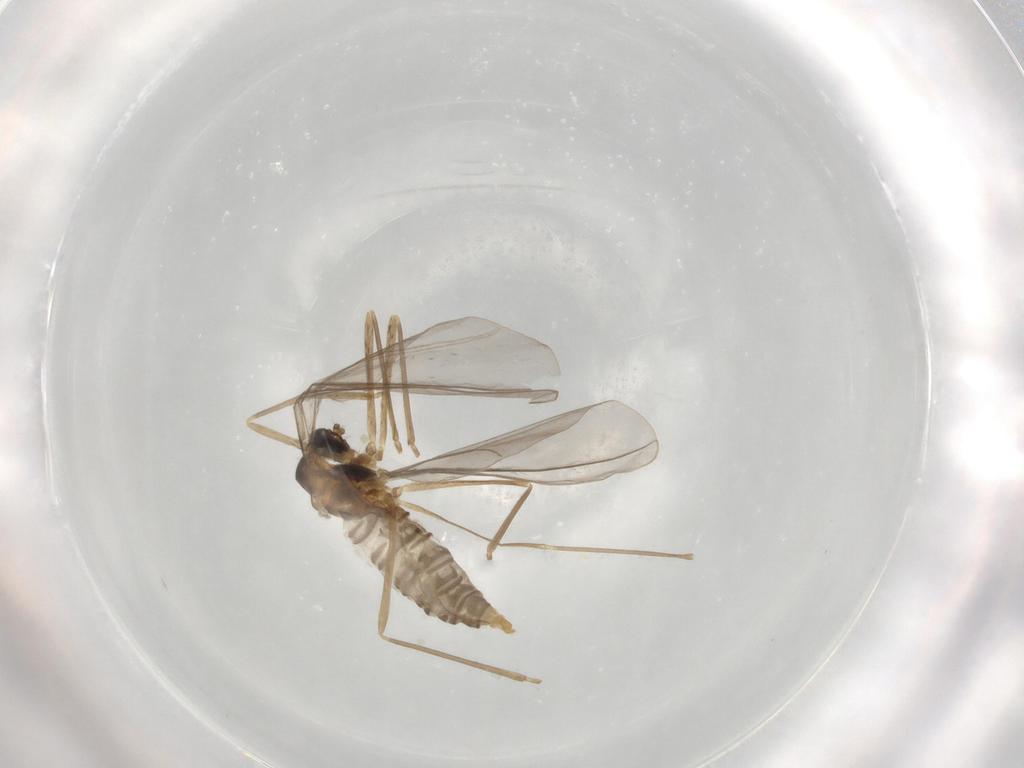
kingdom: Animalia
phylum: Arthropoda
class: Insecta
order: Diptera
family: Cecidomyiidae
